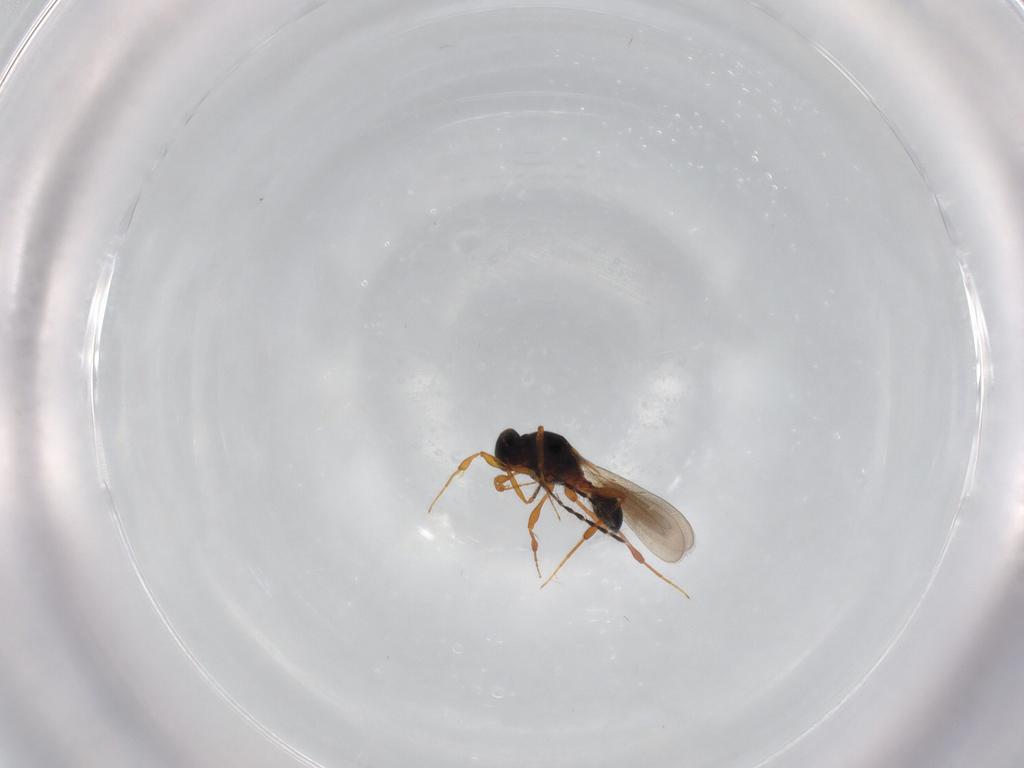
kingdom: Animalia
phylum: Arthropoda
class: Insecta
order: Hymenoptera
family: Platygastridae
